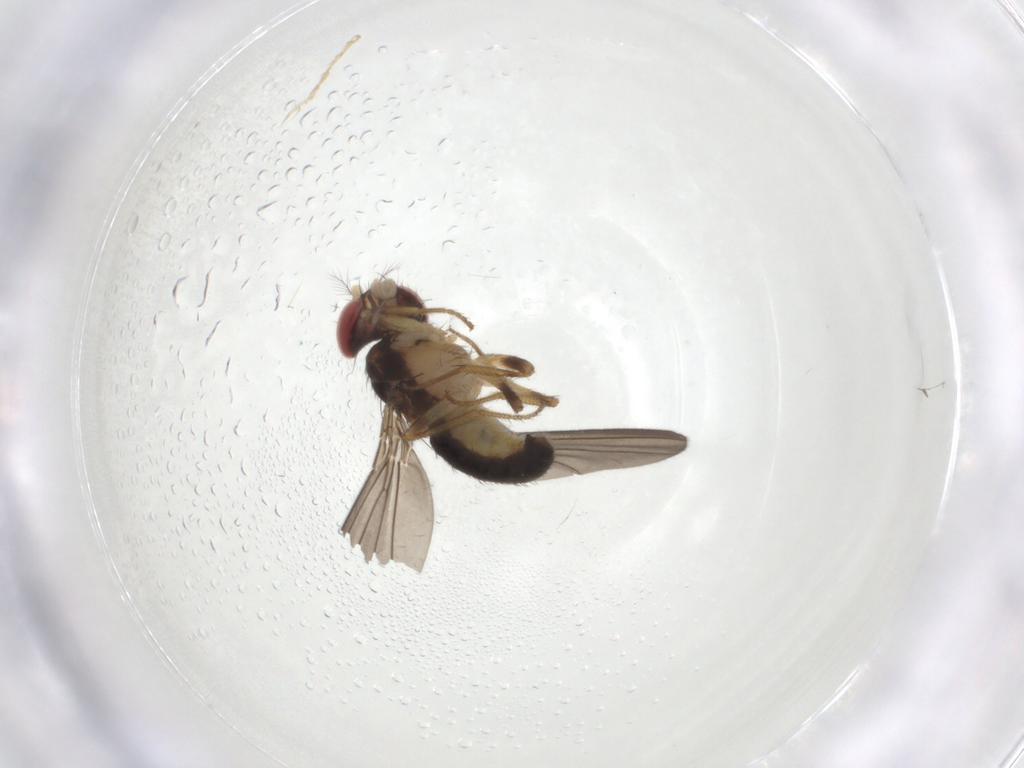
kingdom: Animalia
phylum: Arthropoda
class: Insecta
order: Diptera
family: Drosophilidae
